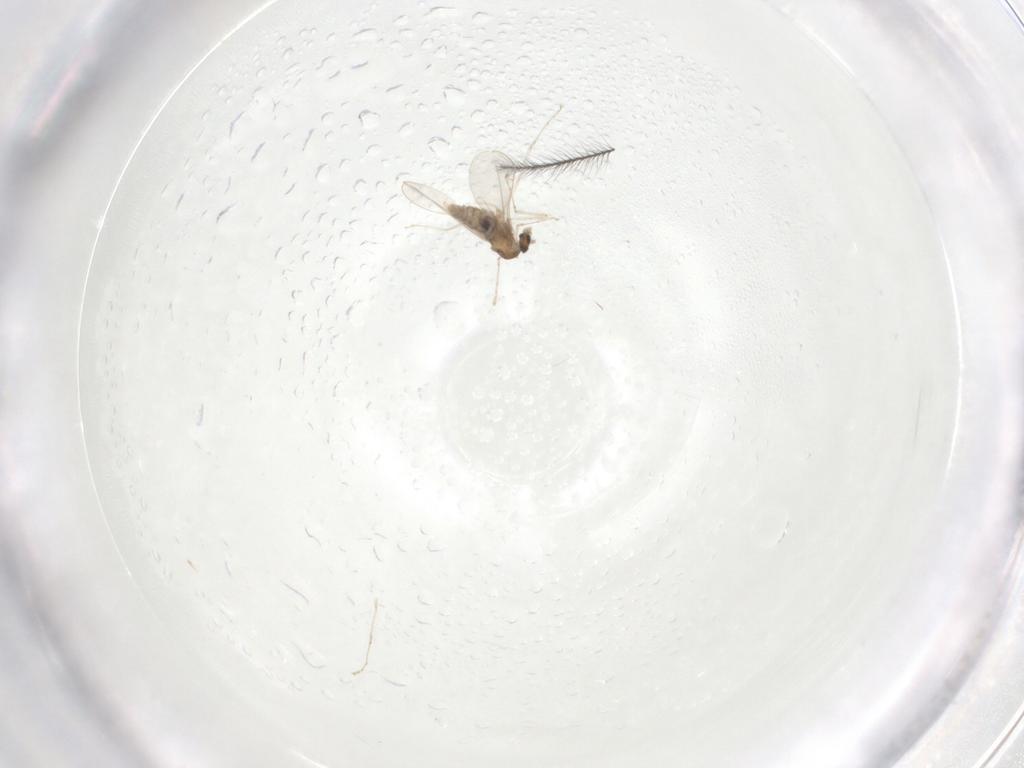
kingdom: Animalia
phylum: Arthropoda
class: Insecta
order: Diptera
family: Cecidomyiidae
